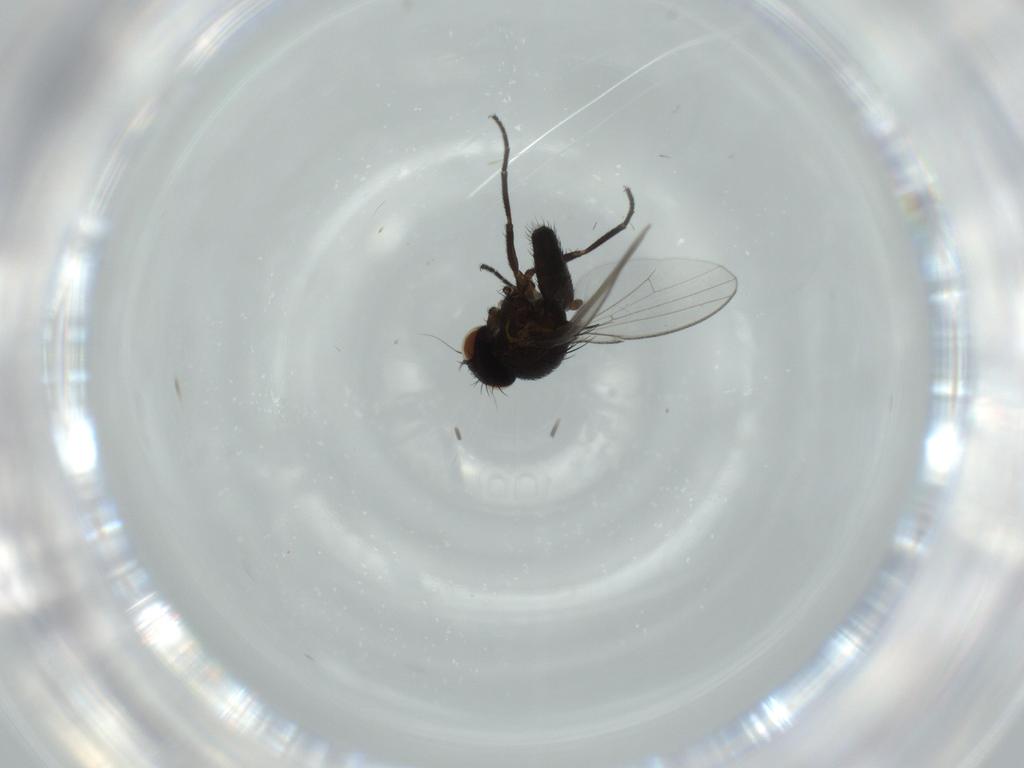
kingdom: Animalia
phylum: Arthropoda
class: Insecta
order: Diptera
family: Milichiidae
